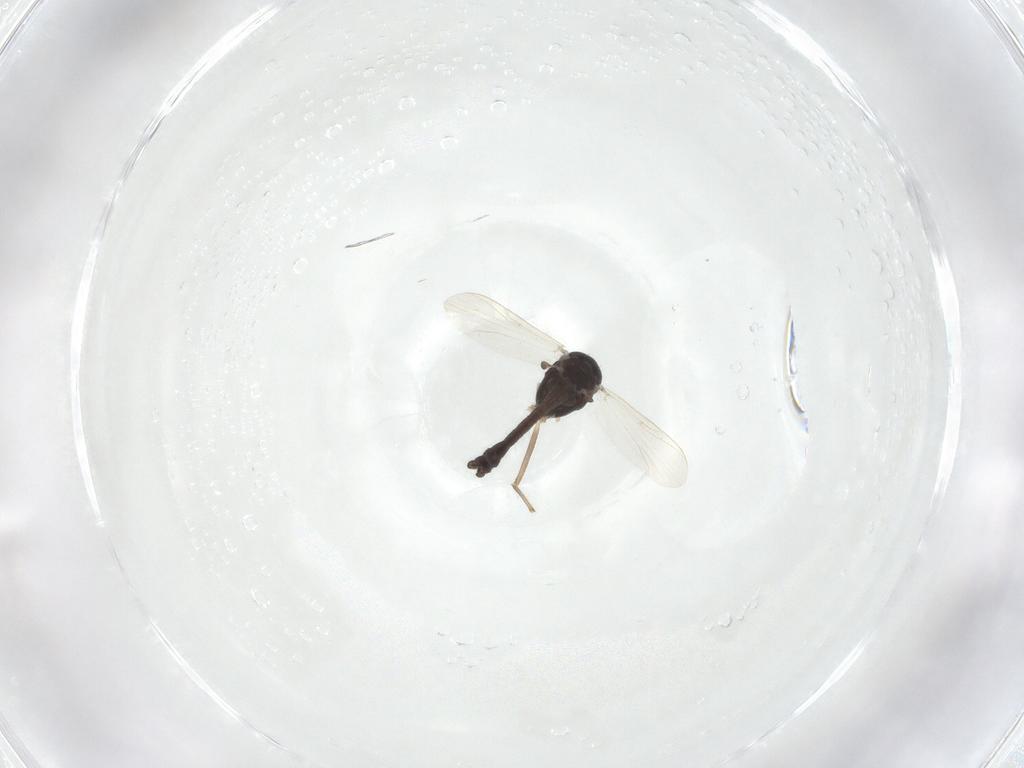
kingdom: Animalia
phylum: Arthropoda
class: Insecta
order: Diptera
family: Chironomidae
